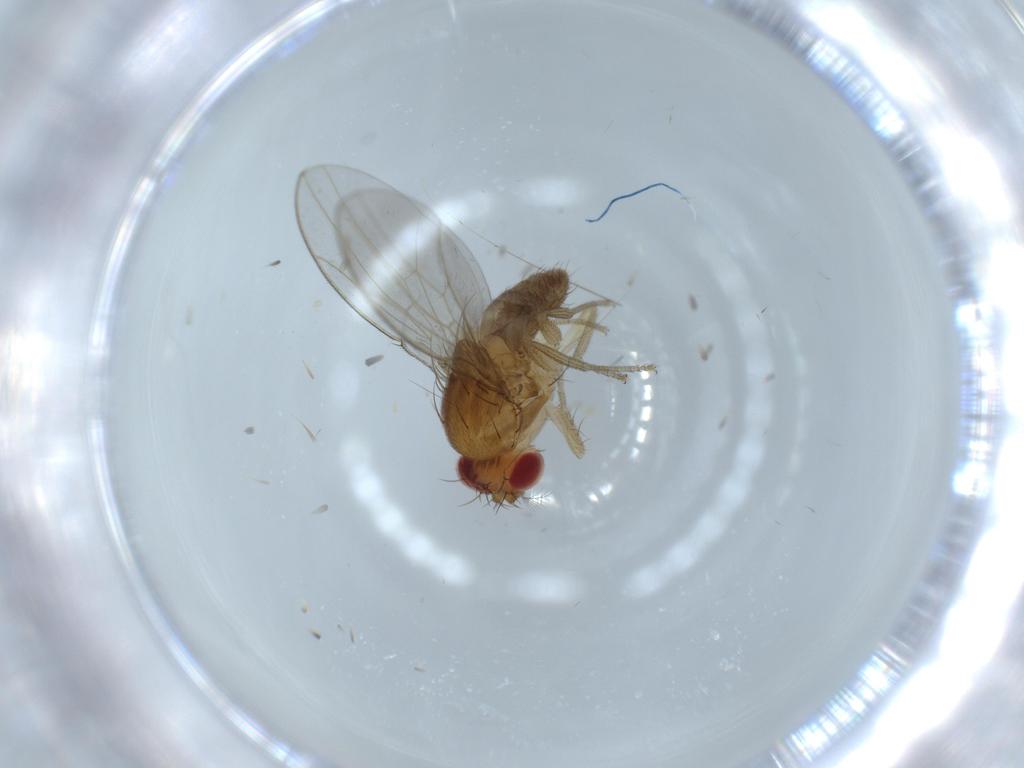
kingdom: Animalia
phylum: Arthropoda
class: Insecta
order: Diptera
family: Drosophilidae
